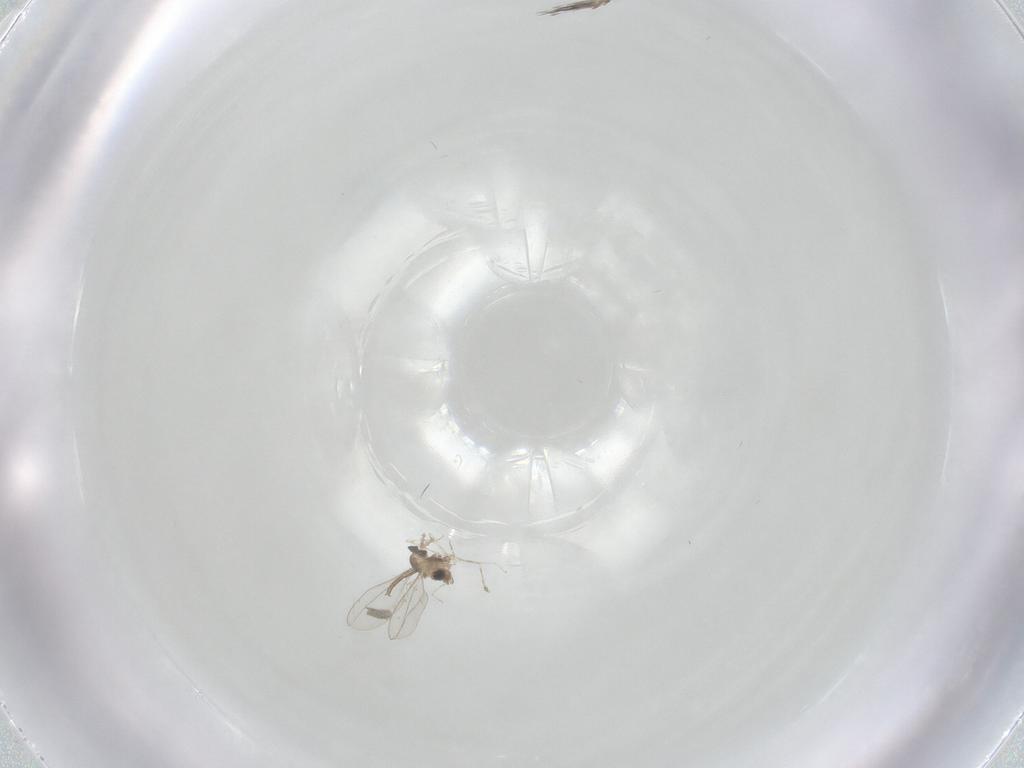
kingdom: Animalia
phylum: Arthropoda
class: Insecta
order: Diptera
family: Cecidomyiidae
